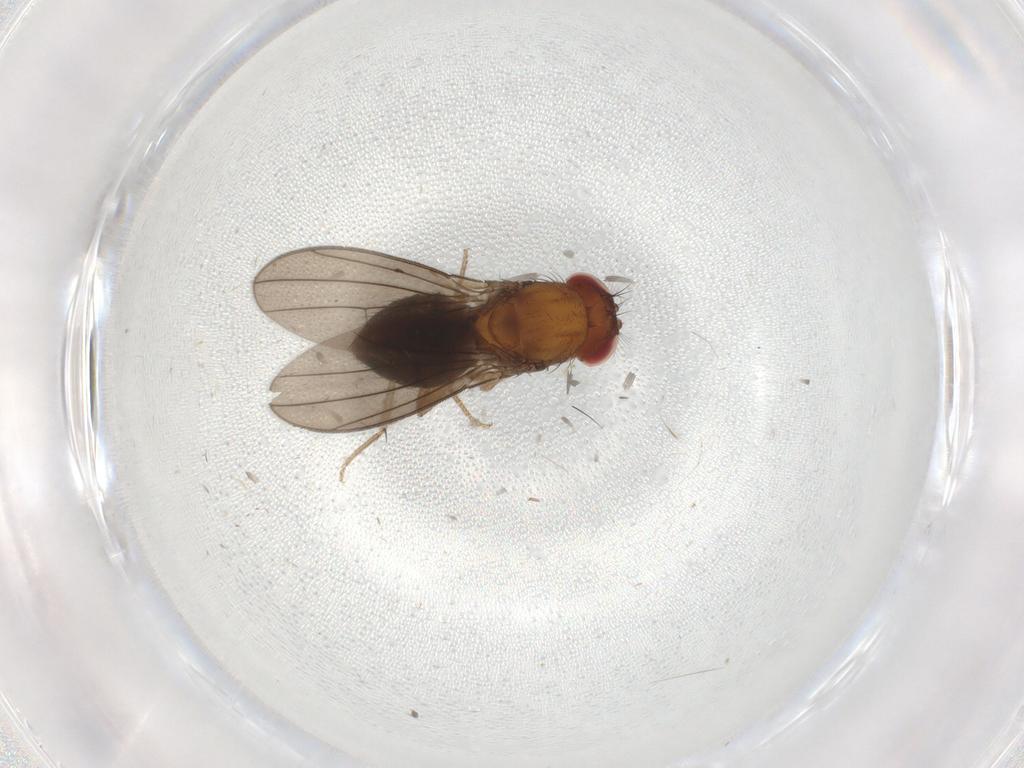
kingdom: Animalia
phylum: Arthropoda
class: Insecta
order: Diptera
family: Drosophilidae
